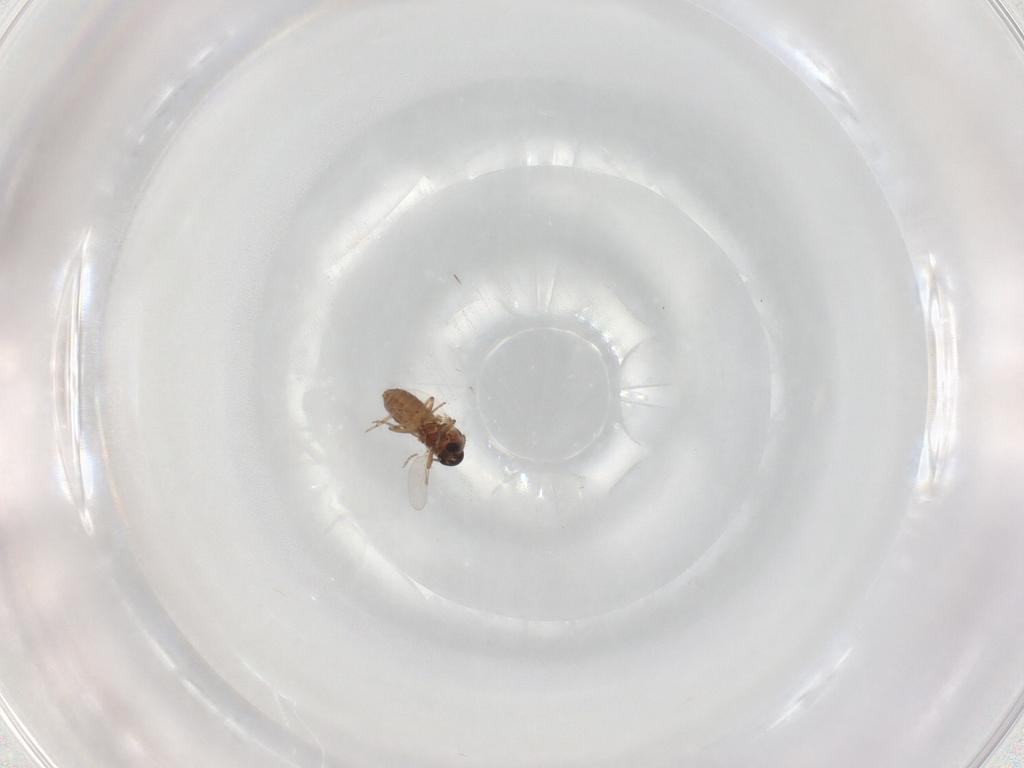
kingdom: Animalia
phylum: Arthropoda
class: Insecta
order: Diptera
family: Ceratopogonidae
